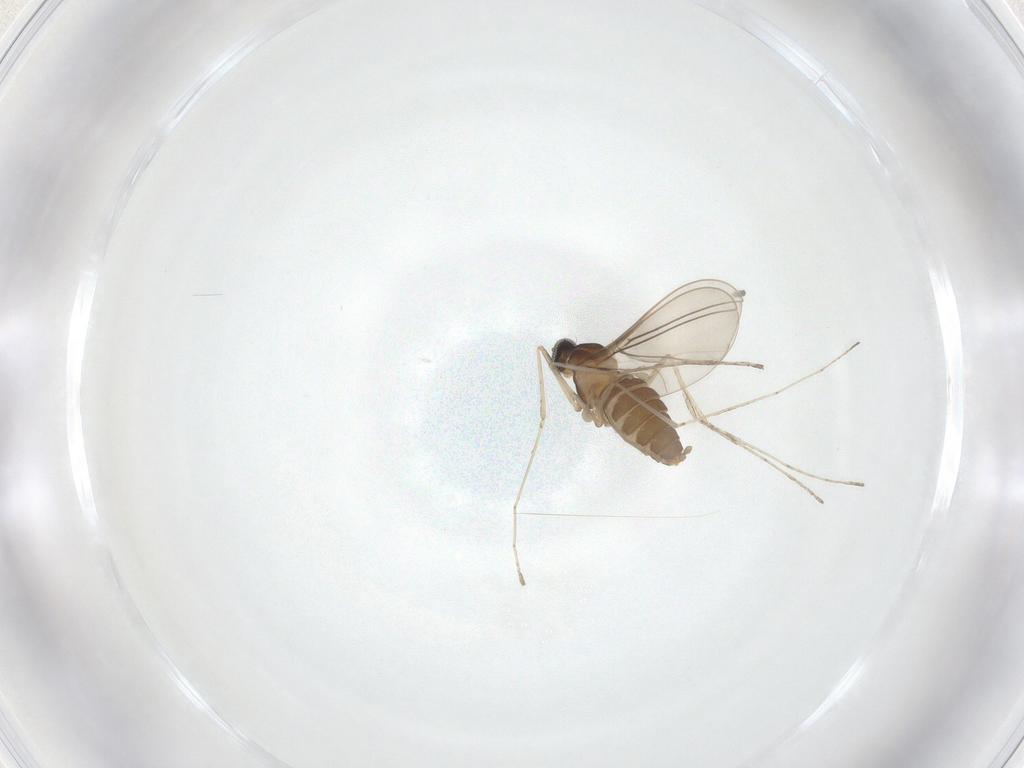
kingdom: Animalia
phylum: Arthropoda
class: Insecta
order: Diptera
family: Cecidomyiidae
